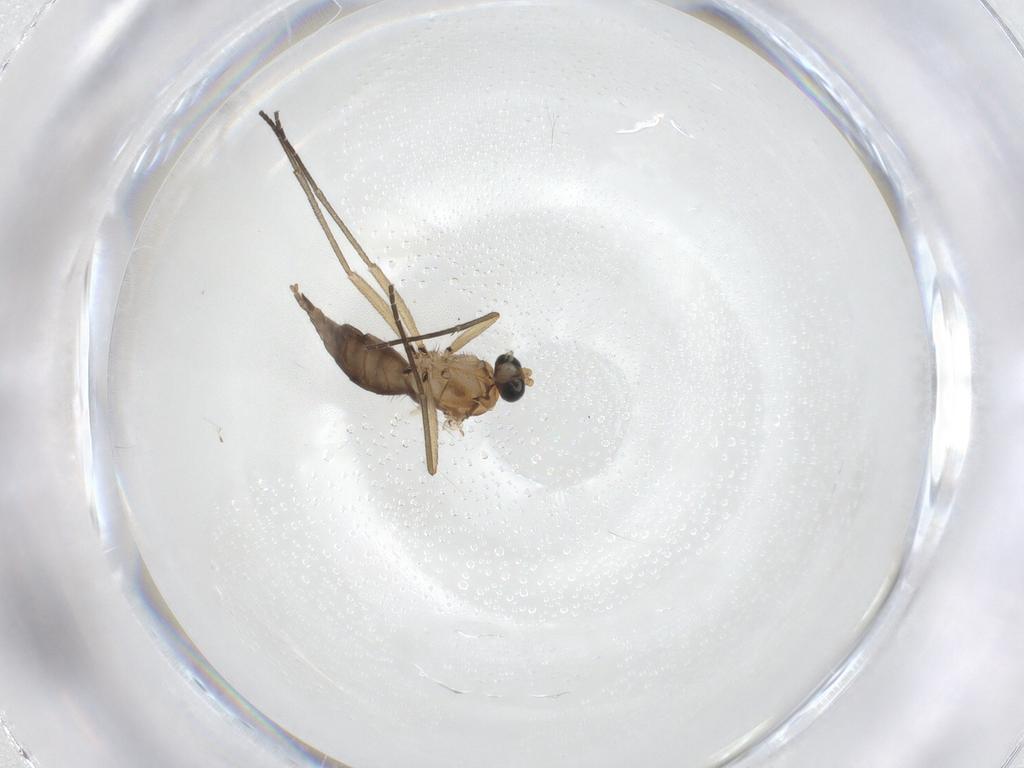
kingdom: Animalia
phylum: Arthropoda
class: Insecta
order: Diptera
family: Sciaridae
